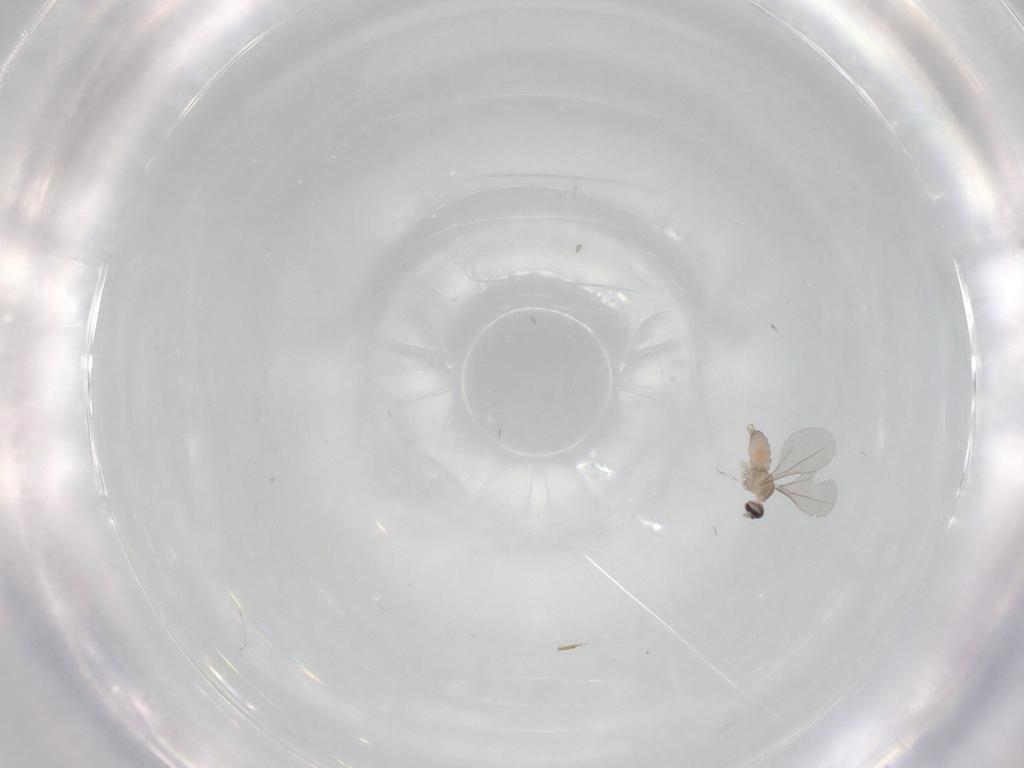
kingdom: Animalia
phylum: Arthropoda
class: Insecta
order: Diptera
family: Cecidomyiidae
